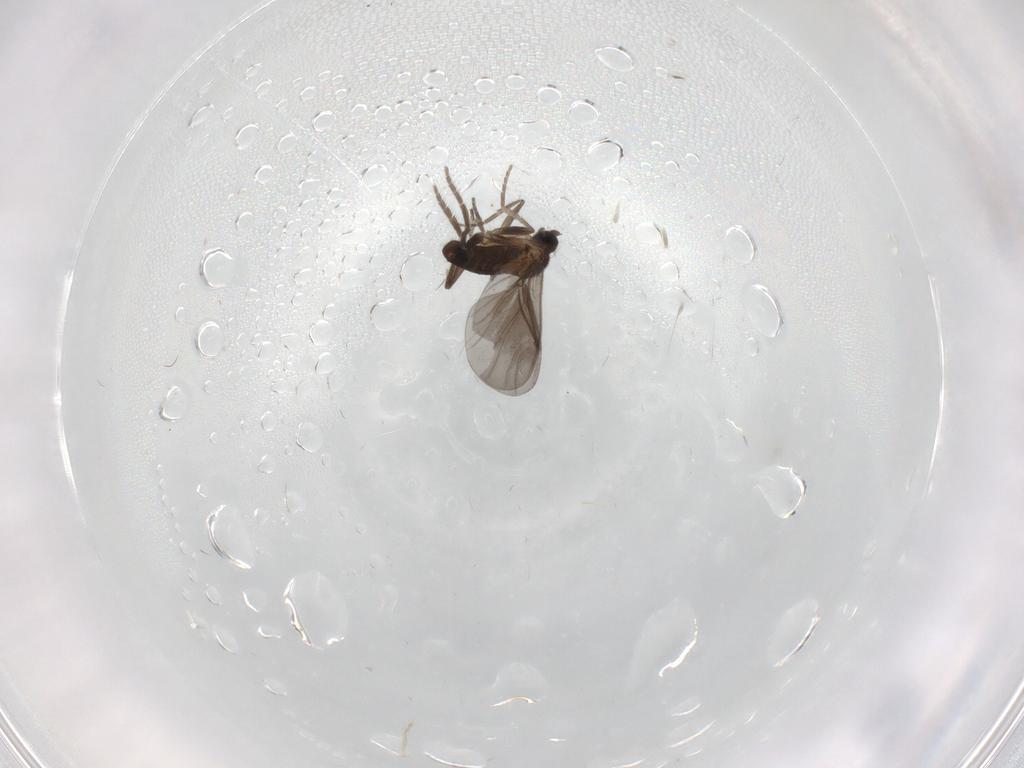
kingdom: Animalia
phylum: Arthropoda
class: Insecta
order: Diptera
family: Phoridae
